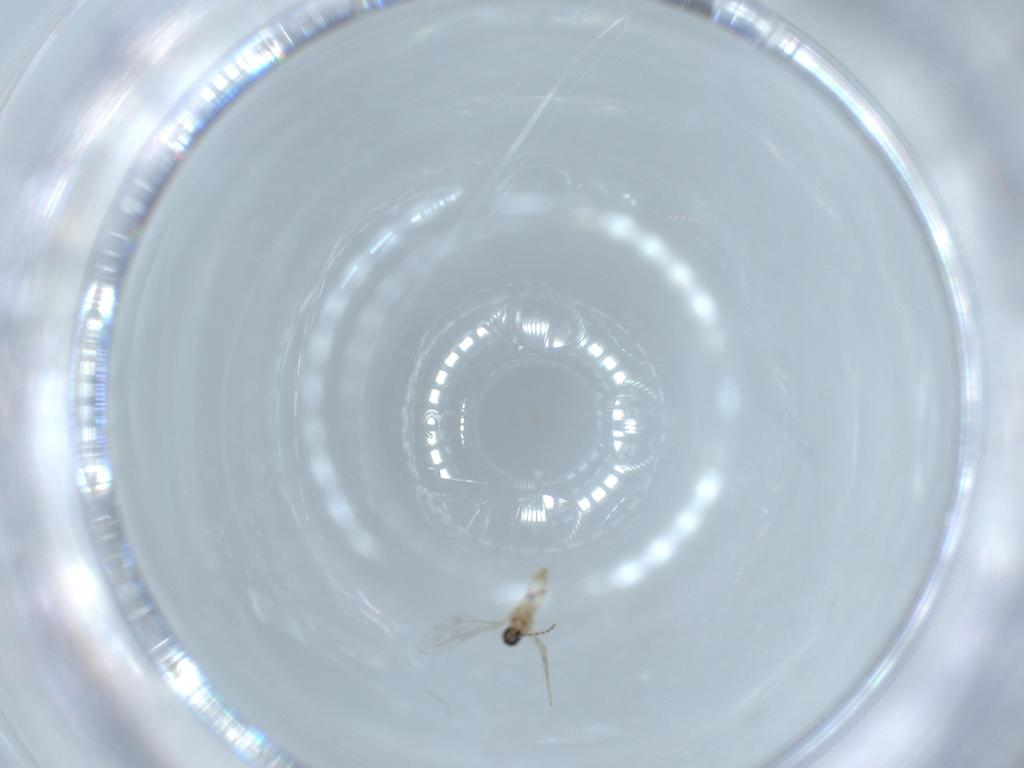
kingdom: Animalia
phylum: Arthropoda
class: Insecta
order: Diptera
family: Cecidomyiidae
